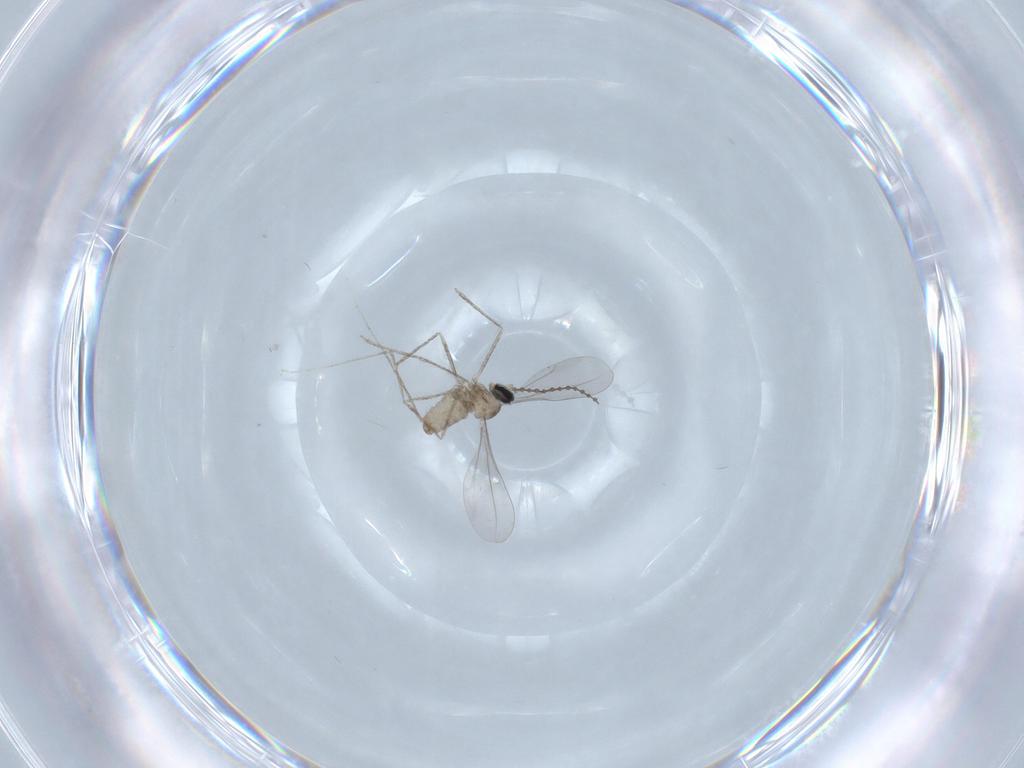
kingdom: Animalia
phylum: Arthropoda
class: Insecta
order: Diptera
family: Cecidomyiidae
